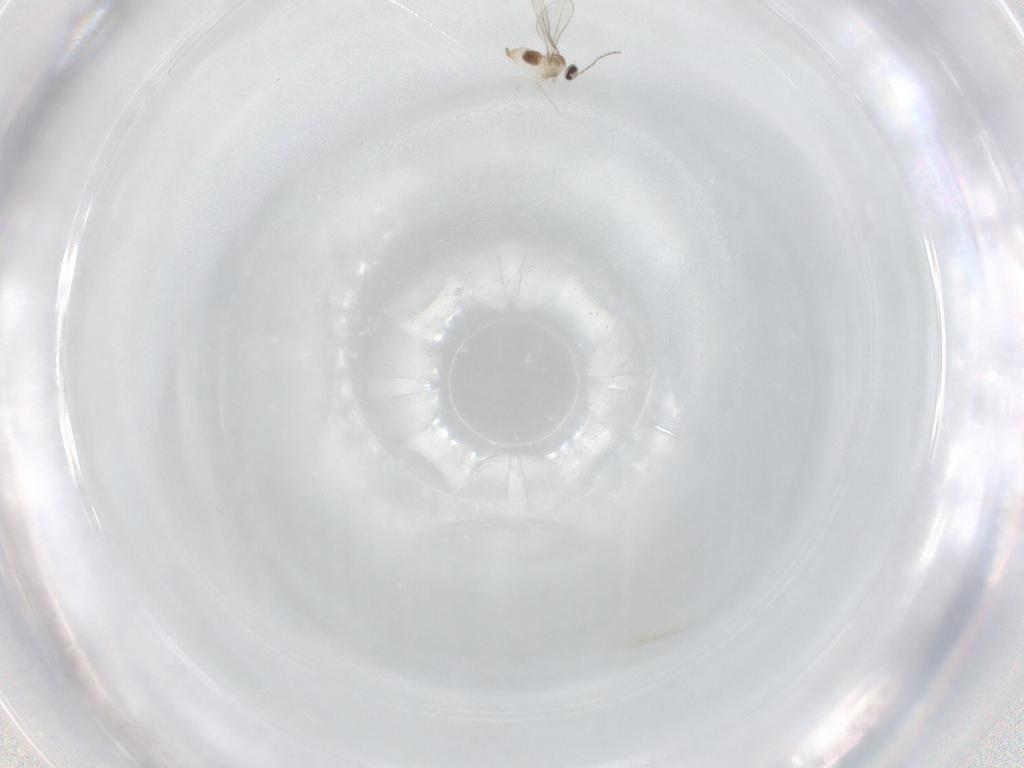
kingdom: Animalia
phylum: Arthropoda
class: Insecta
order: Diptera
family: Cecidomyiidae
